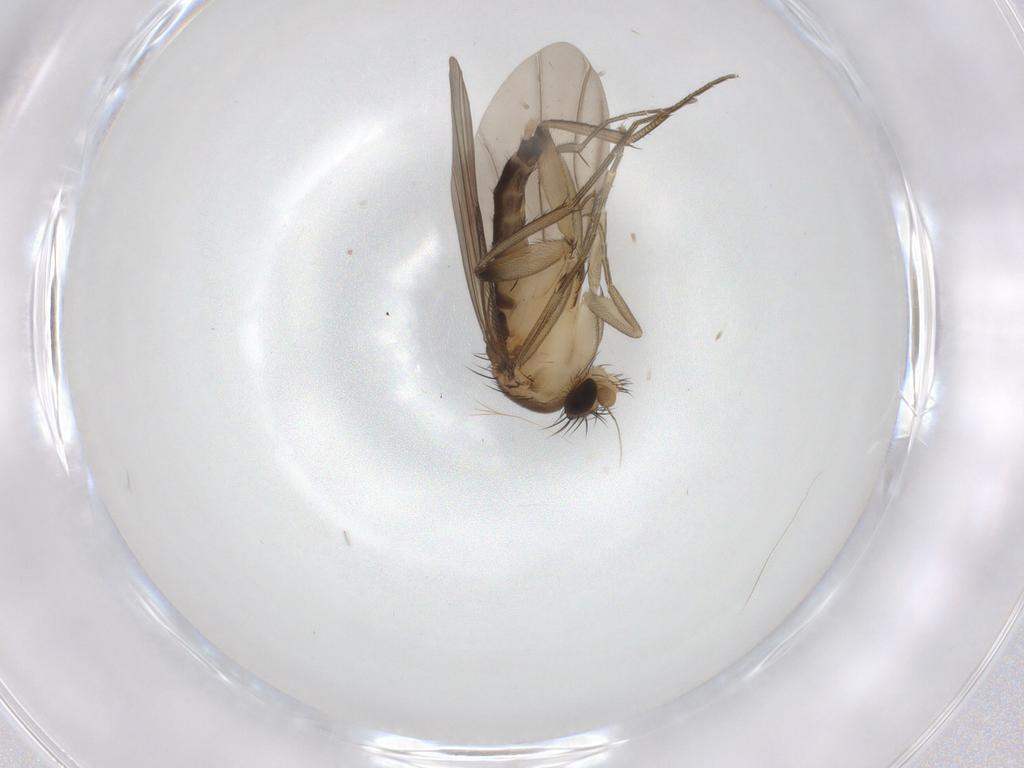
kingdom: Animalia
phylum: Arthropoda
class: Insecta
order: Diptera
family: Phoridae
